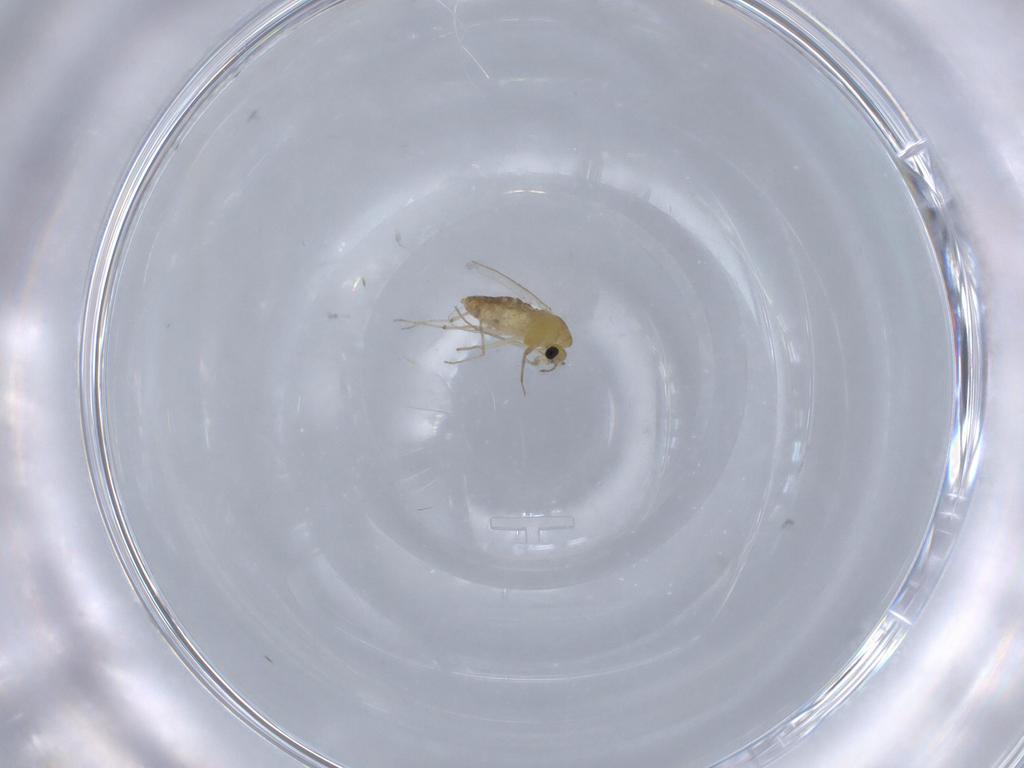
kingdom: Animalia
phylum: Arthropoda
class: Insecta
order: Diptera
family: Chironomidae
